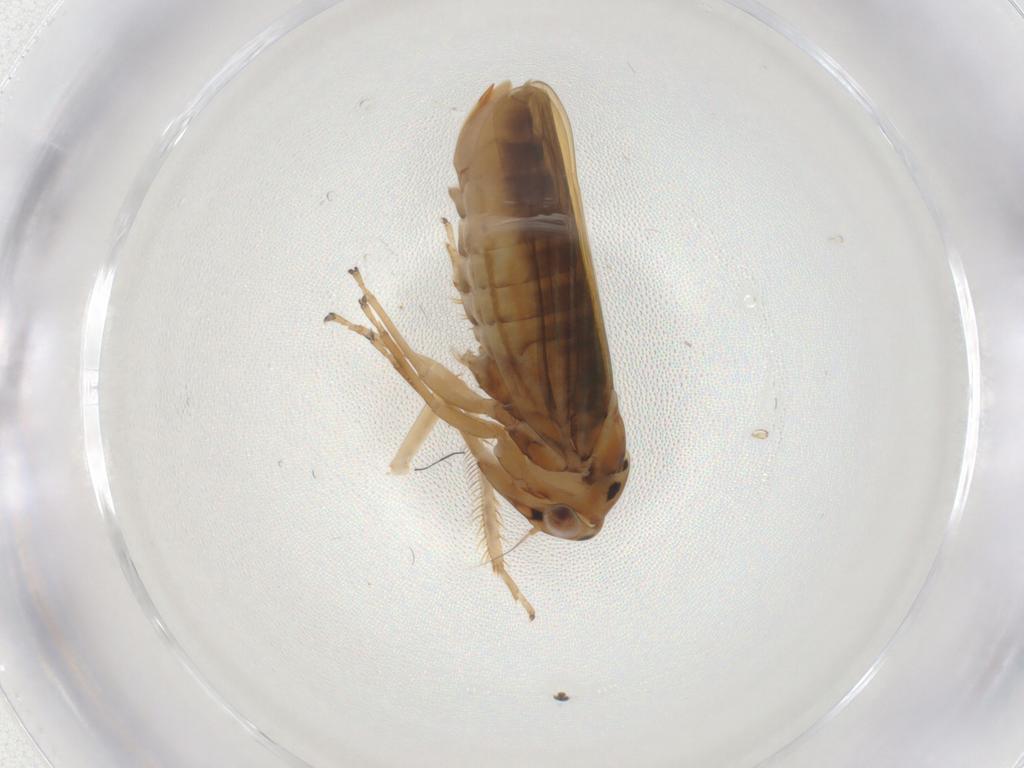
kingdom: Animalia
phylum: Arthropoda
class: Insecta
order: Hemiptera
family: Cicadellidae
